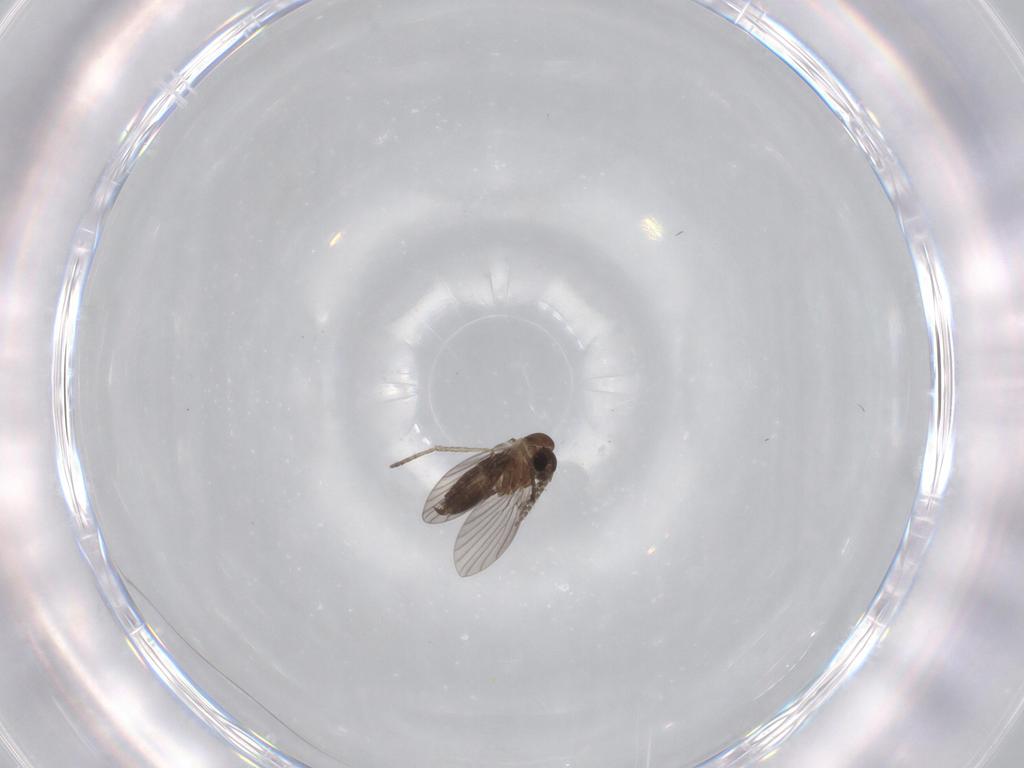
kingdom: Animalia
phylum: Arthropoda
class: Insecta
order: Diptera
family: Chironomidae
